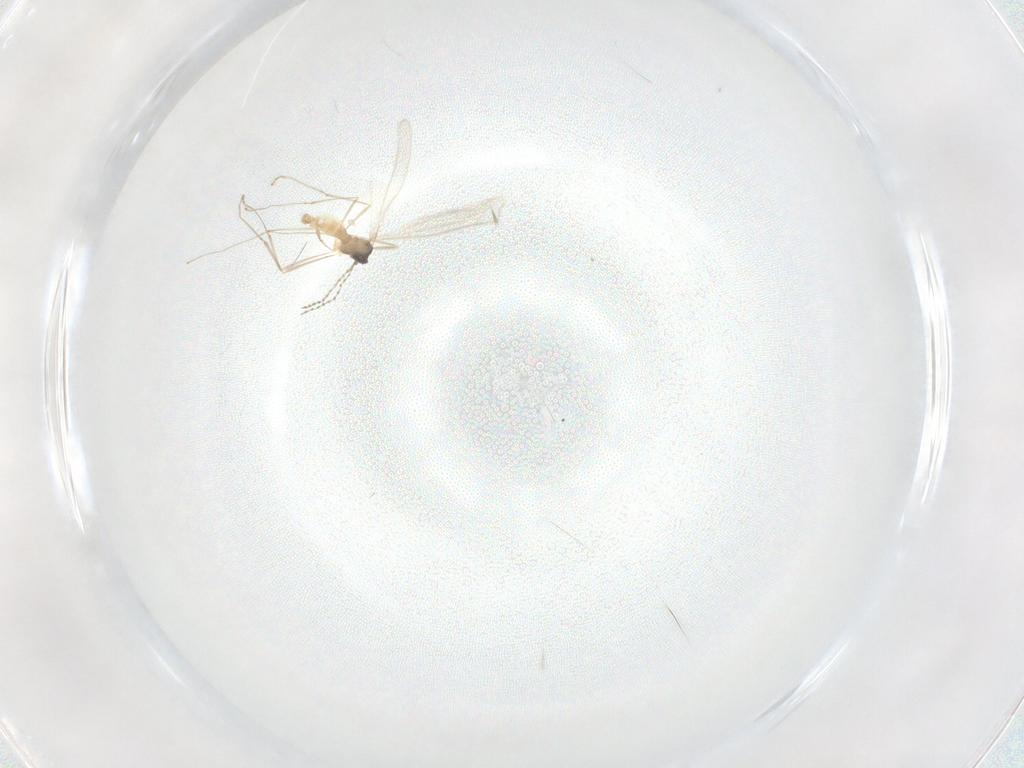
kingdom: Animalia
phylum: Arthropoda
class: Insecta
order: Diptera
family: Cecidomyiidae
